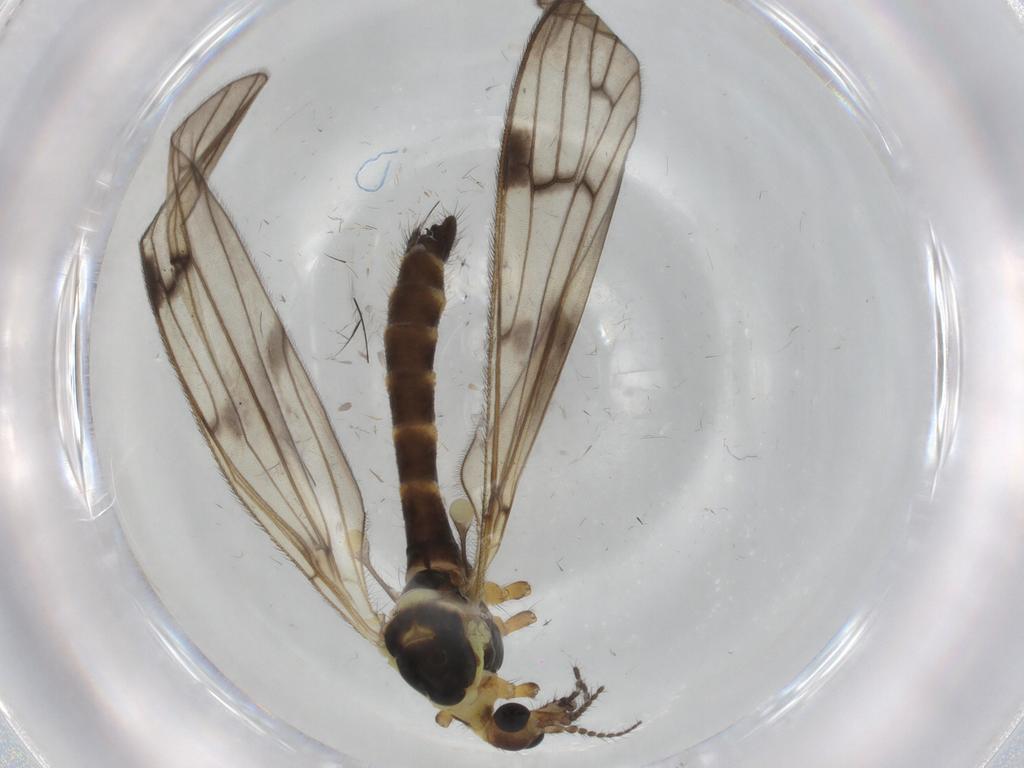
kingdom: Animalia
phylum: Arthropoda
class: Insecta
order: Diptera
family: Limoniidae
